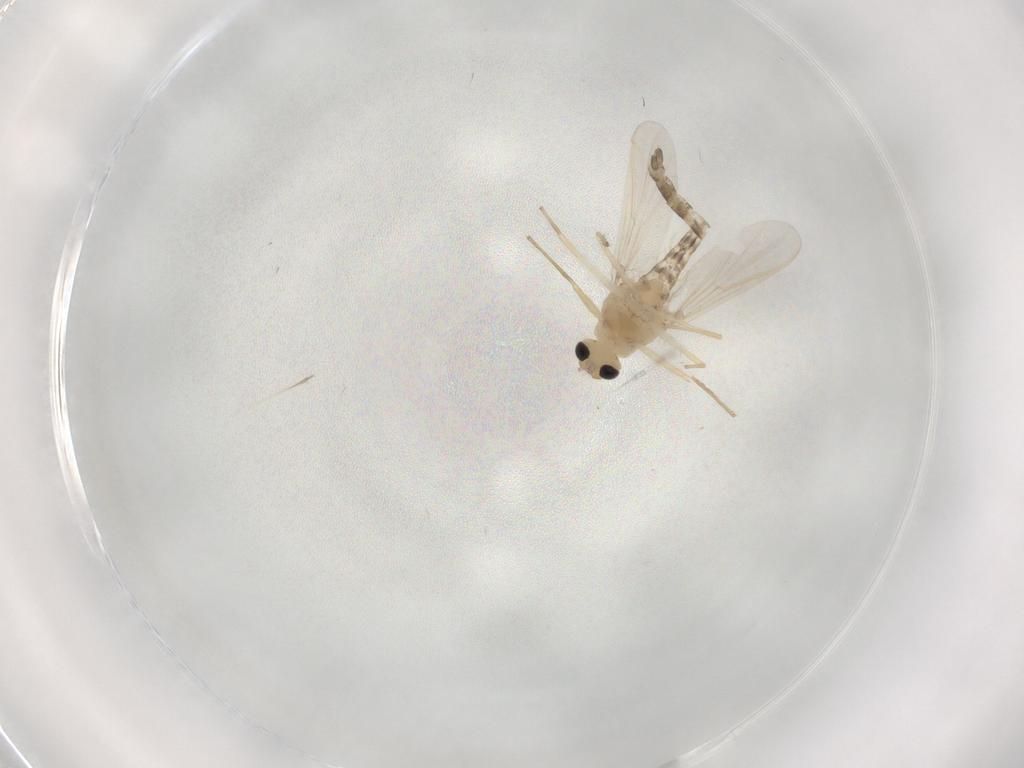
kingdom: Animalia
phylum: Arthropoda
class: Insecta
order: Diptera
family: Chironomidae
